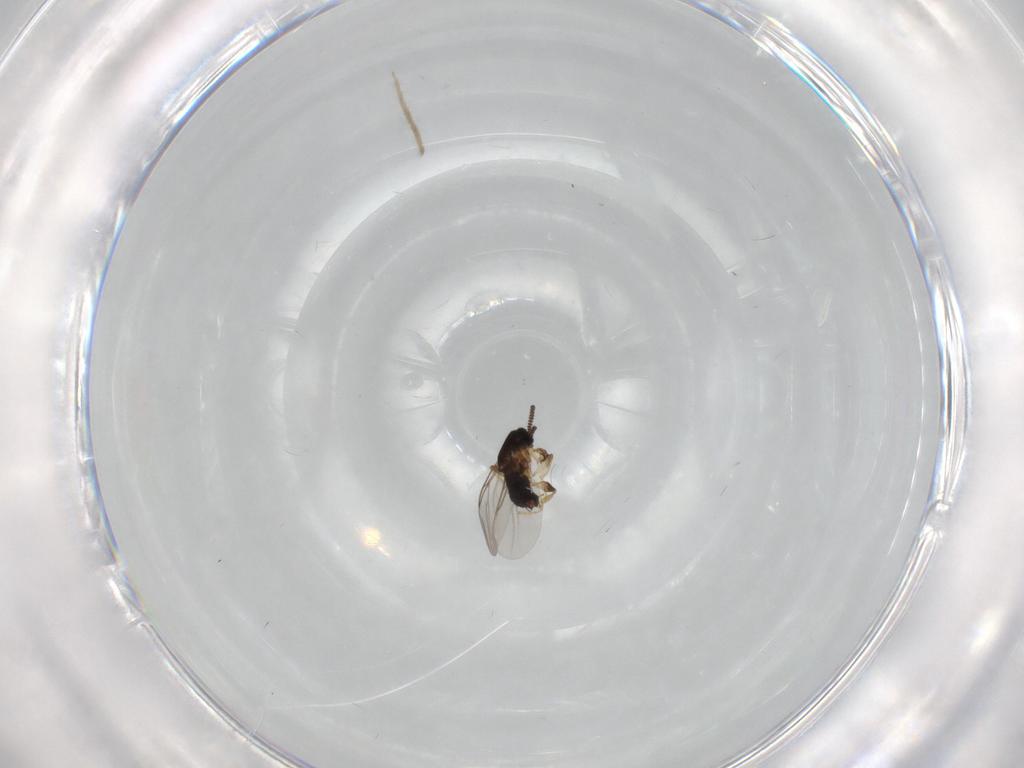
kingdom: Animalia
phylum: Arthropoda
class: Insecta
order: Diptera
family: Scatopsidae
